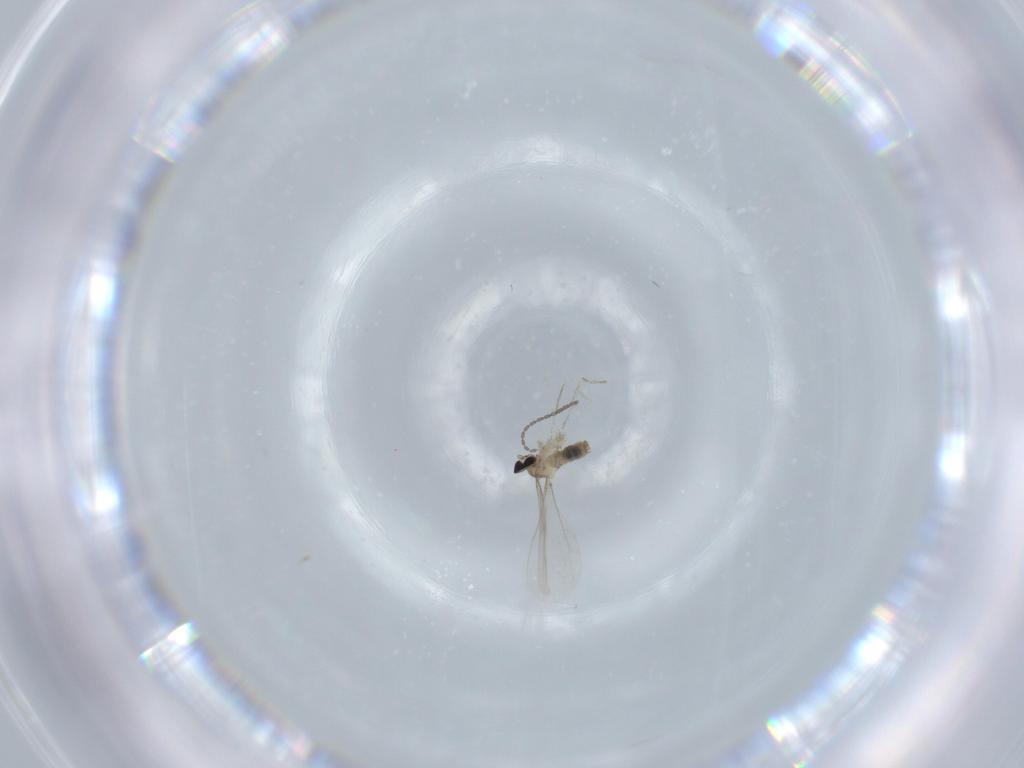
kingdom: Animalia
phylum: Arthropoda
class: Insecta
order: Diptera
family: Cecidomyiidae
